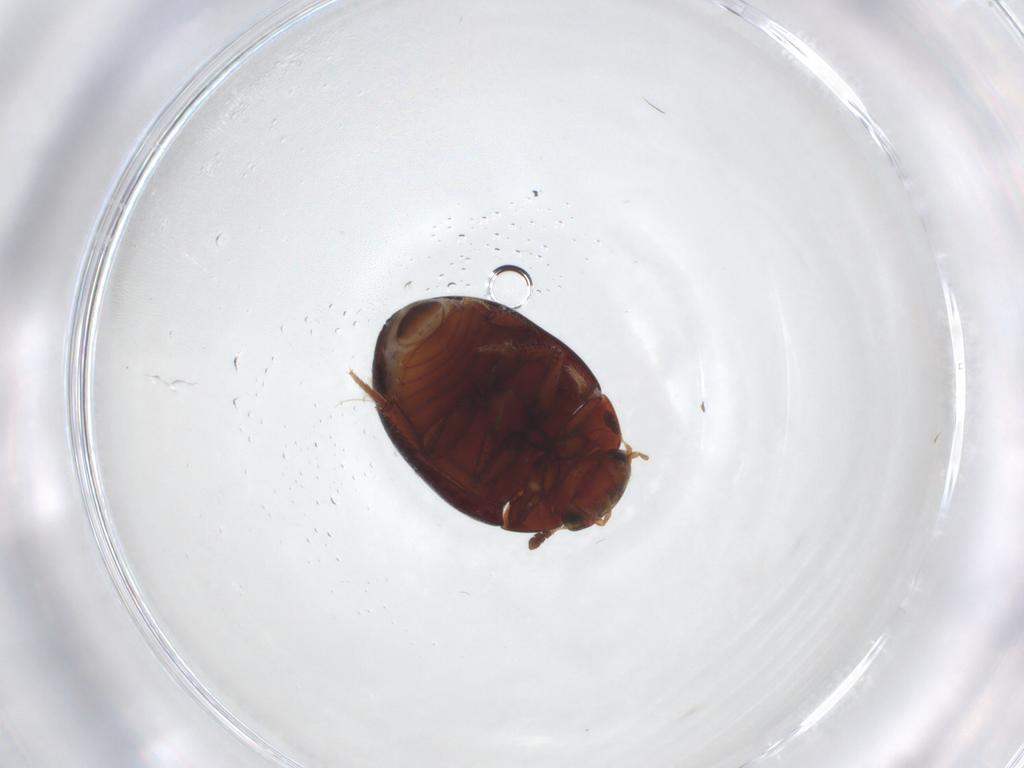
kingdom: Animalia
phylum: Arthropoda
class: Insecta
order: Coleoptera
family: Hydrophilidae
